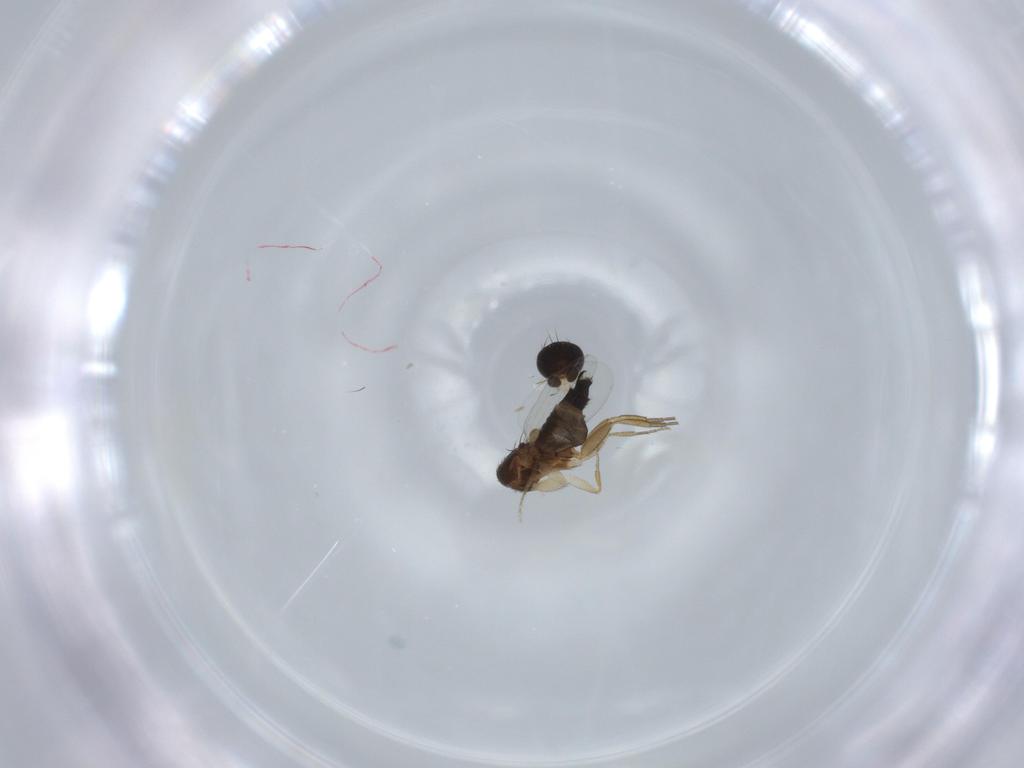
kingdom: Animalia
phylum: Arthropoda
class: Insecta
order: Diptera
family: Phoridae
